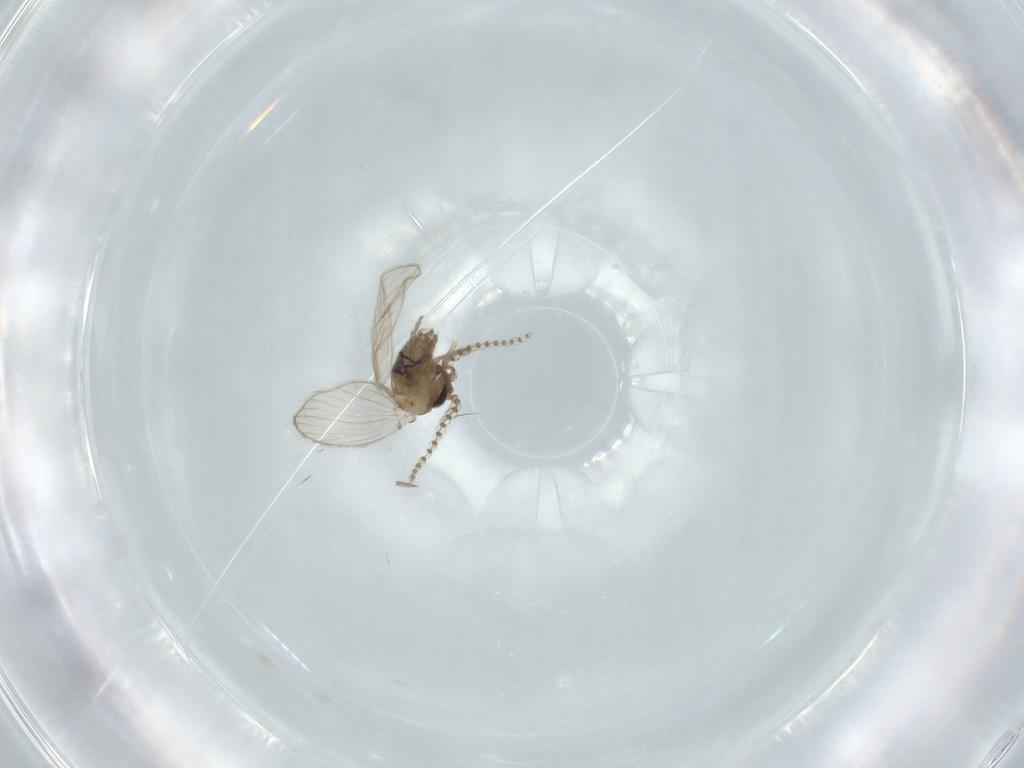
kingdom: Animalia
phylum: Arthropoda
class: Insecta
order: Diptera
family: Psychodidae
